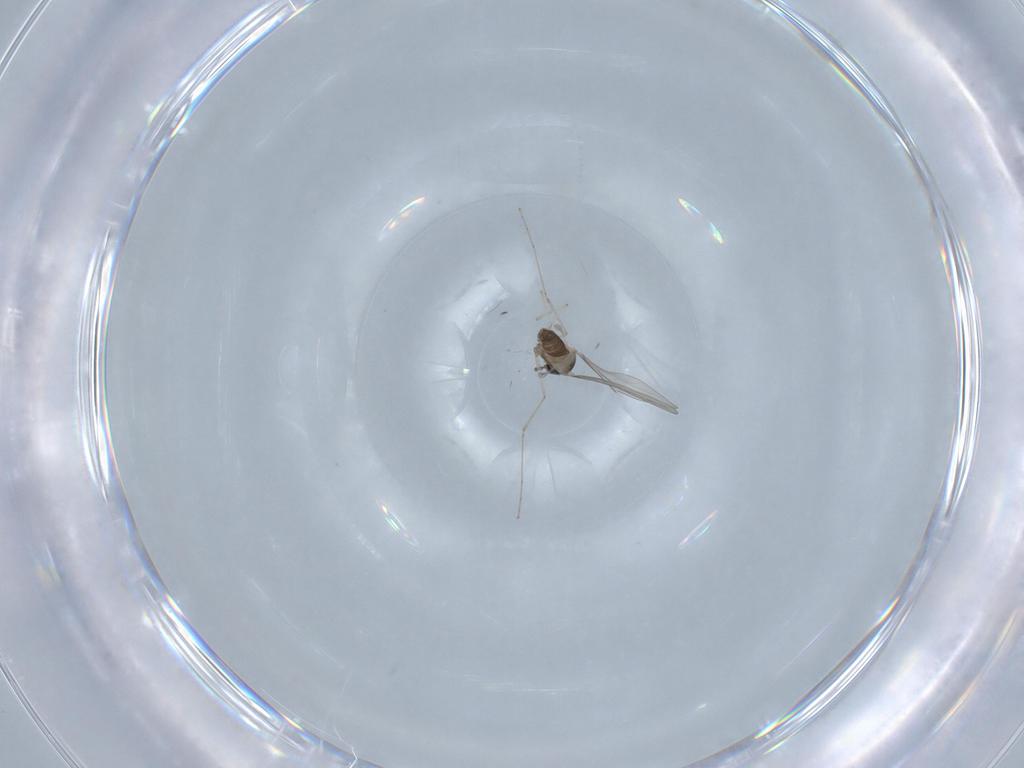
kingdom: Animalia
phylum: Arthropoda
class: Insecta
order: Diptera
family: Cecidomyiidae
